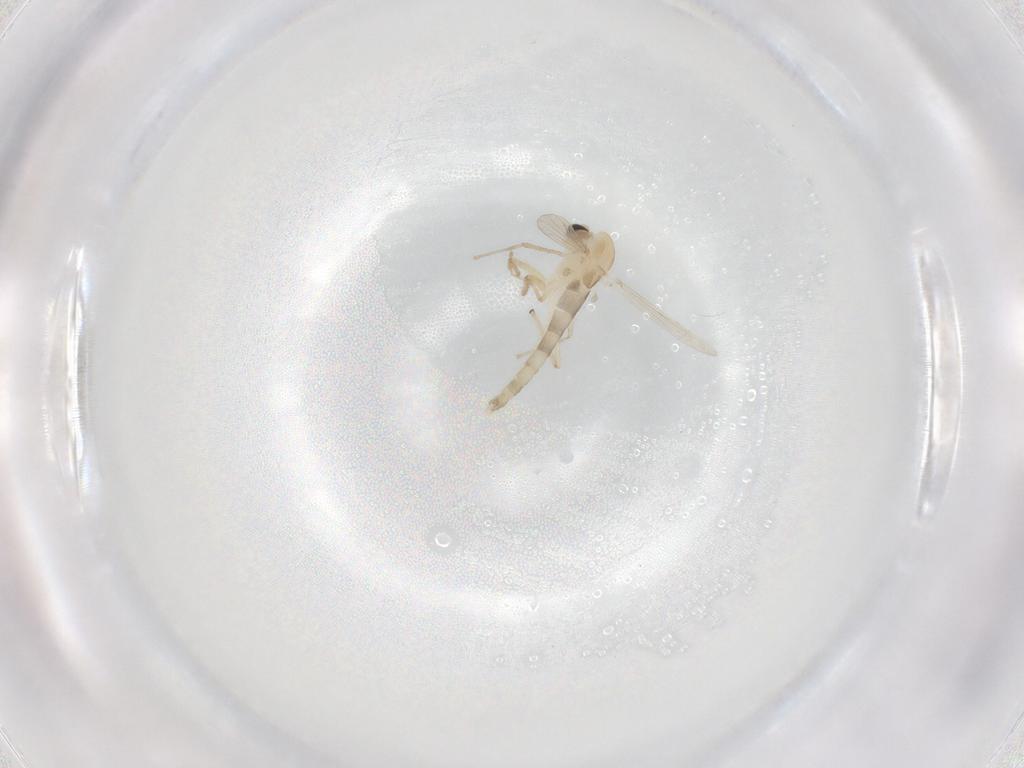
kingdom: Animalia
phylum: Arthropoda
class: Insecta
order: Diptera
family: Chironomidae
